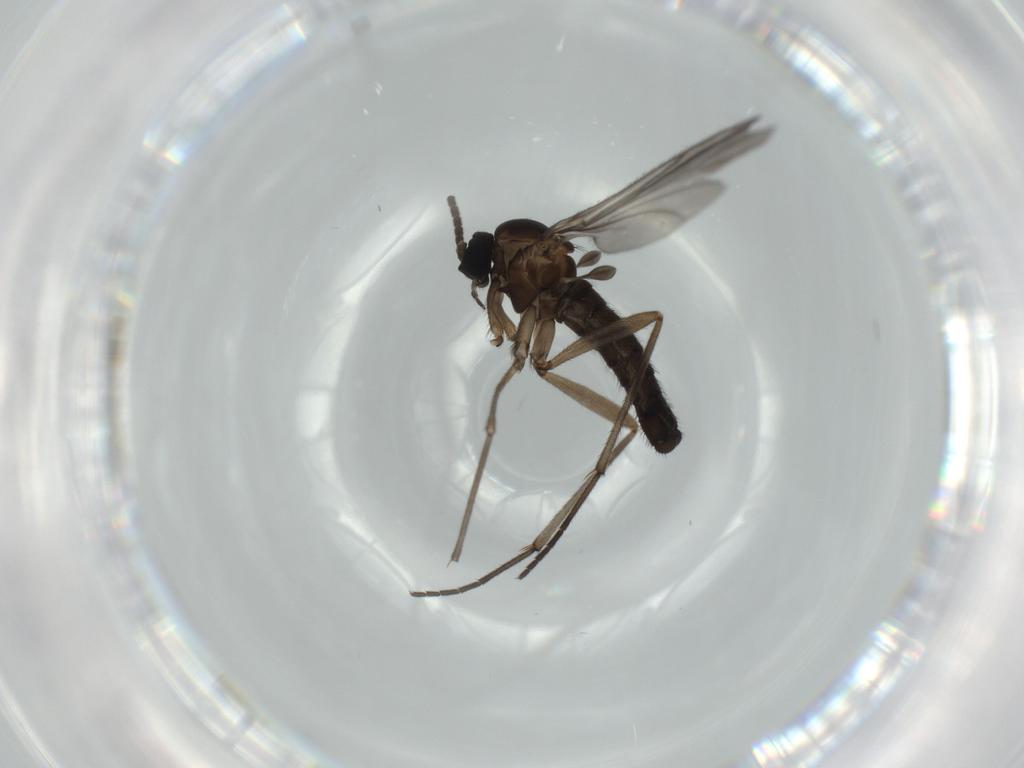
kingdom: Animalia
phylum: Arthropoda
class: Insecta
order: Diptera
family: Sciaridae
